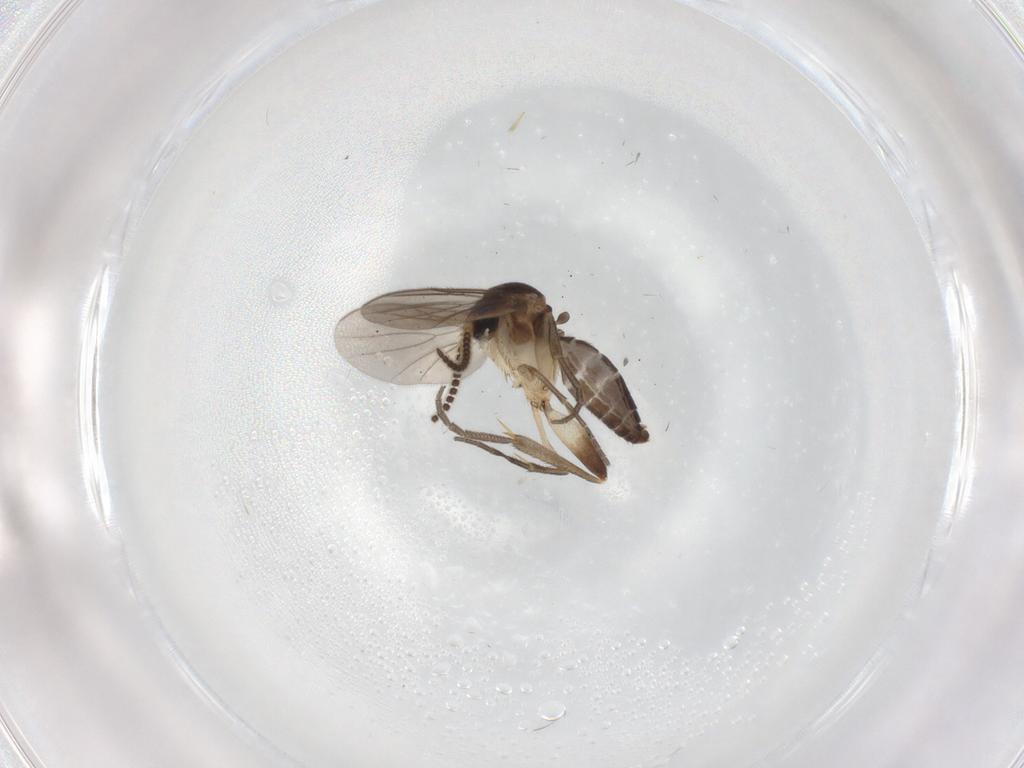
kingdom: Animalia
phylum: Arthropoda
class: Insecta
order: Diptera
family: Mycetophilidae
